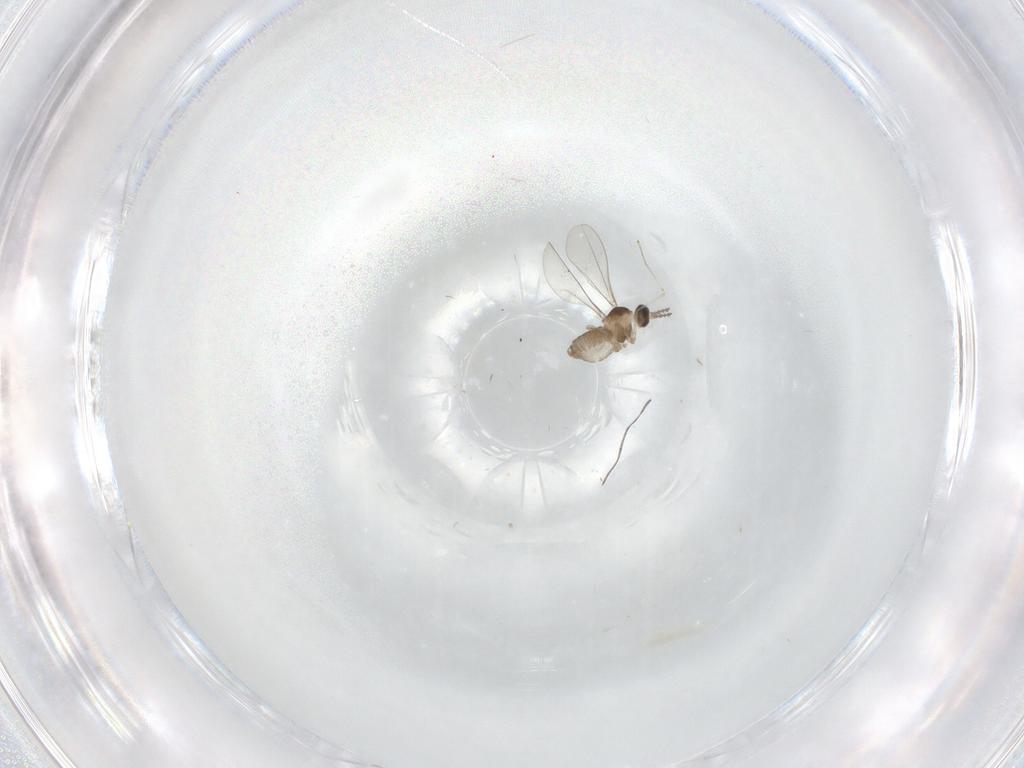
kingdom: Animalia
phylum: Arthropoda
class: Insecta
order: Diptera
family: Cecidomyiidae
